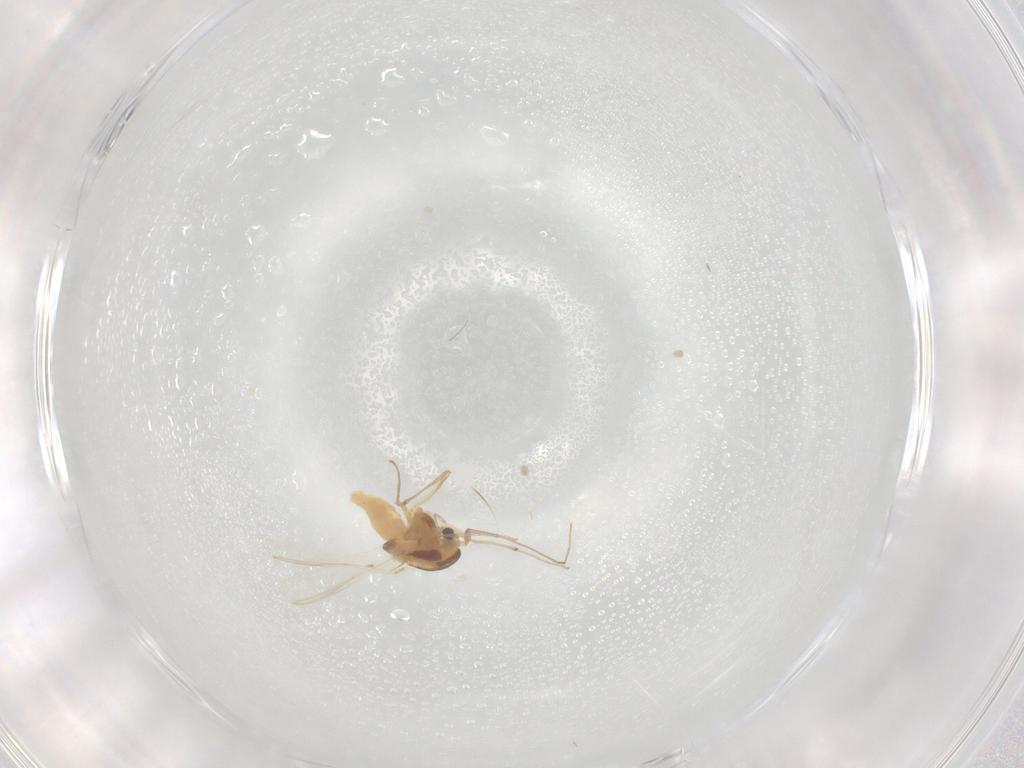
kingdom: Animalia
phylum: Arthropoda
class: Insecta
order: Diptera
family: Chironomidae
